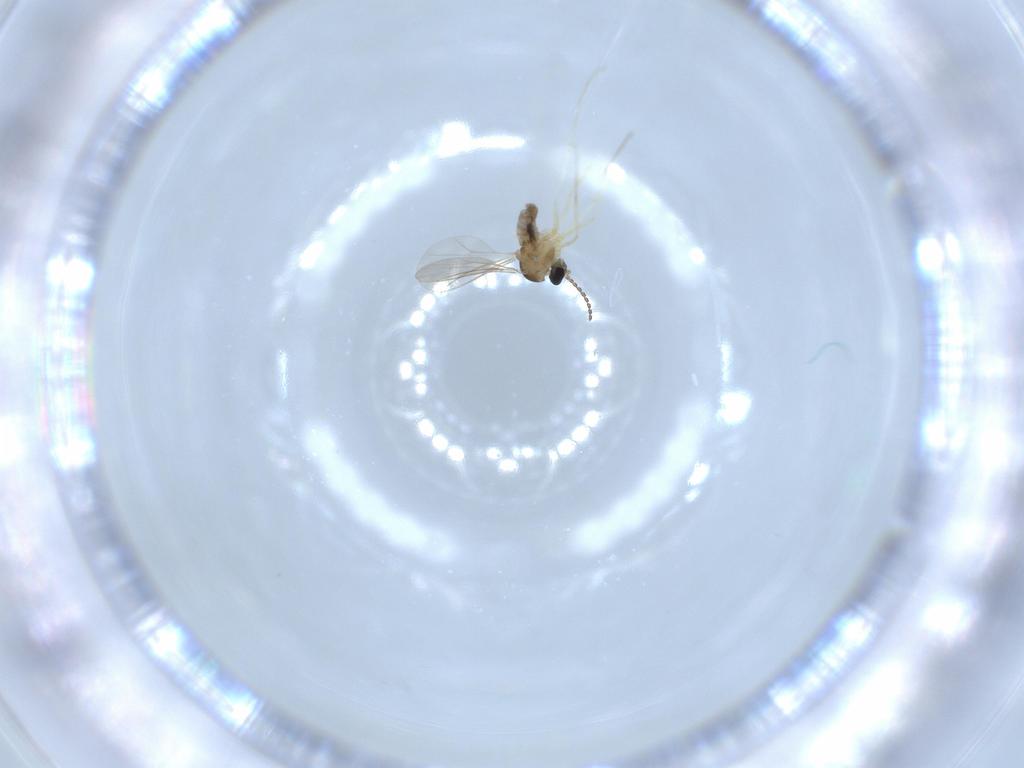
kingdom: Animalia
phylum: Arthropoda
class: Insecta
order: Diptera
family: Cecidomyiidae
